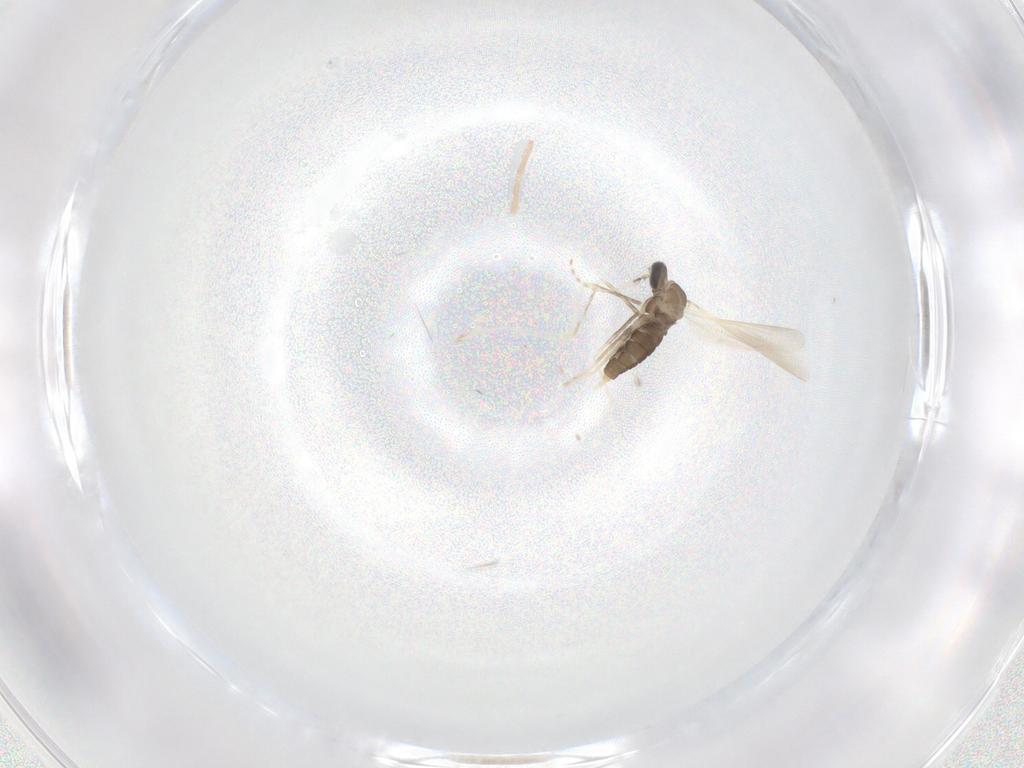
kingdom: Animalia
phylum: Arthropoda
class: Insecta
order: Diptera
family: Cecidomyiidae
